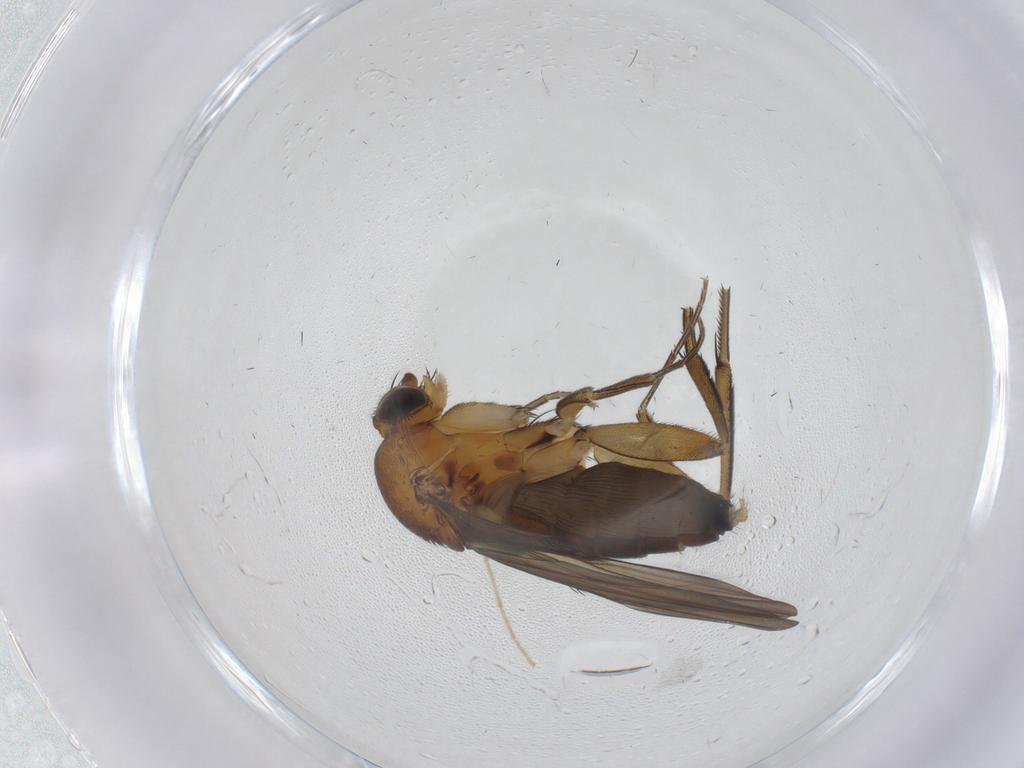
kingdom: Animalia
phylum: Arthropoda
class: Insecta
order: Diptera
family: Phoridae
